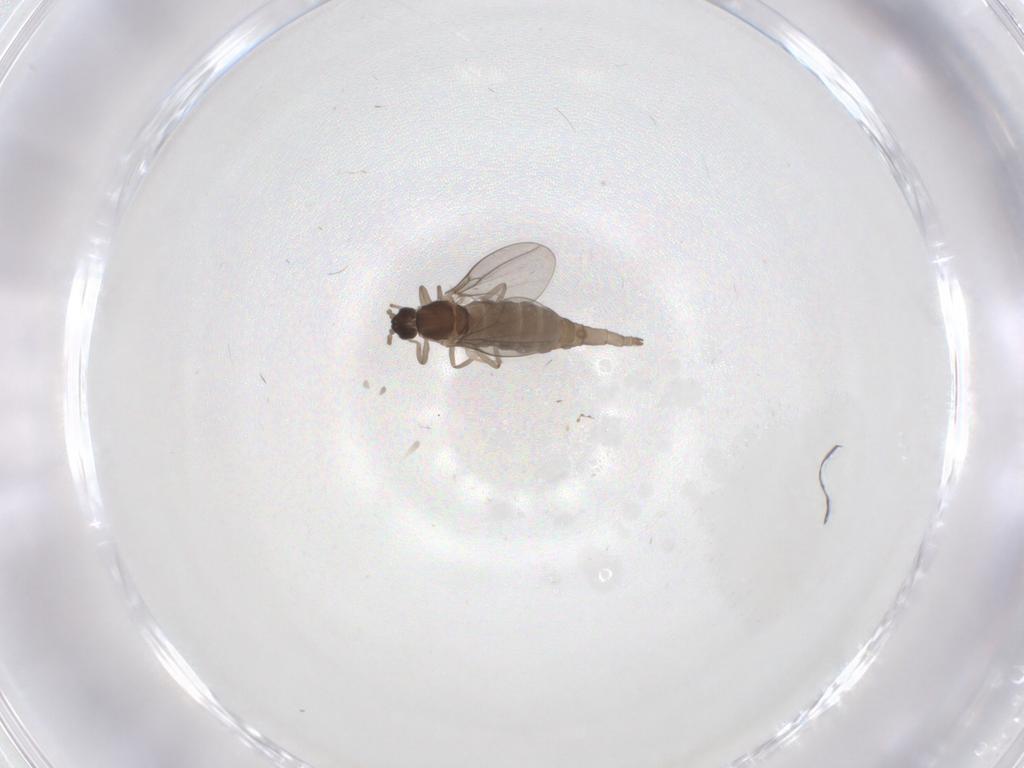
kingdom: Animalia
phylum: Arthropoda
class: Insecta
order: Diptera
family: Cecidomyiidae
